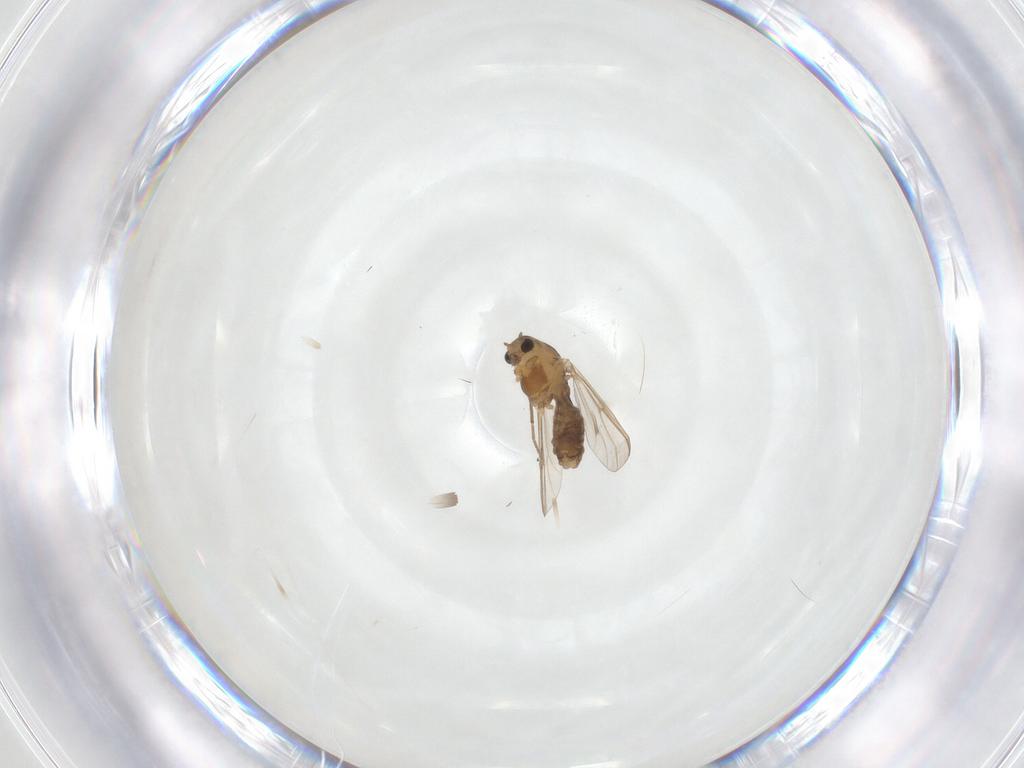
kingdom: Animalia
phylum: Arthropoda
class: Insecta
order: Diptera
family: Chironomidae
